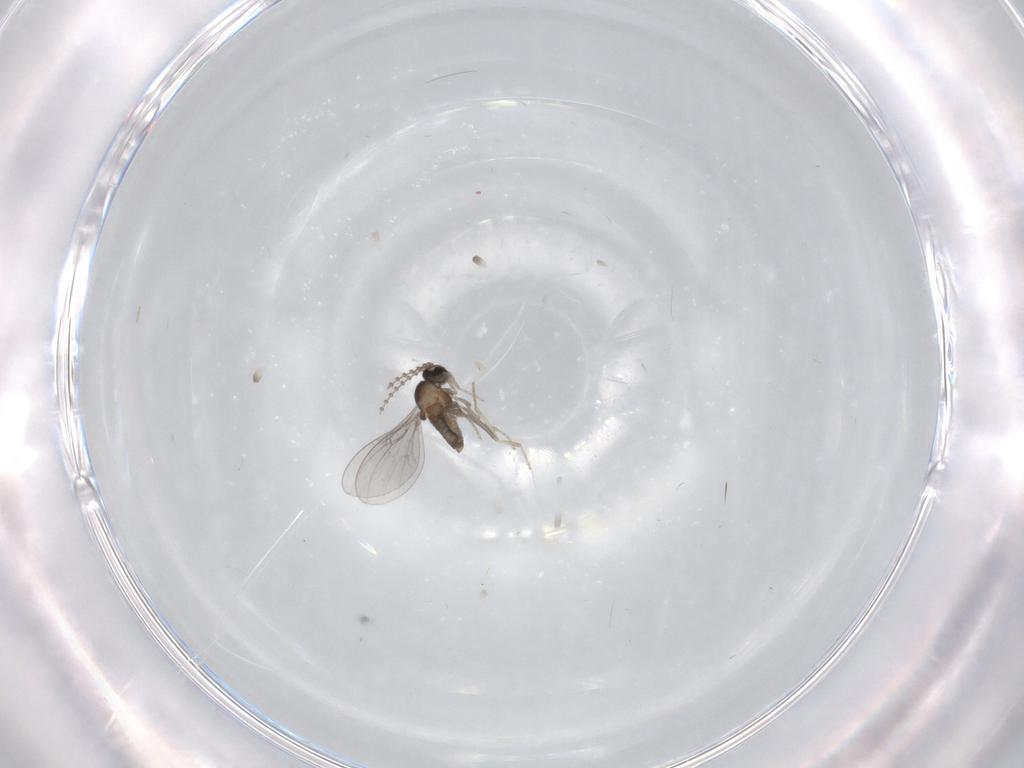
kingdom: Animalia
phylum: Arthropoda
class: Insecta
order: Diptera
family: Cecidomyiidae
